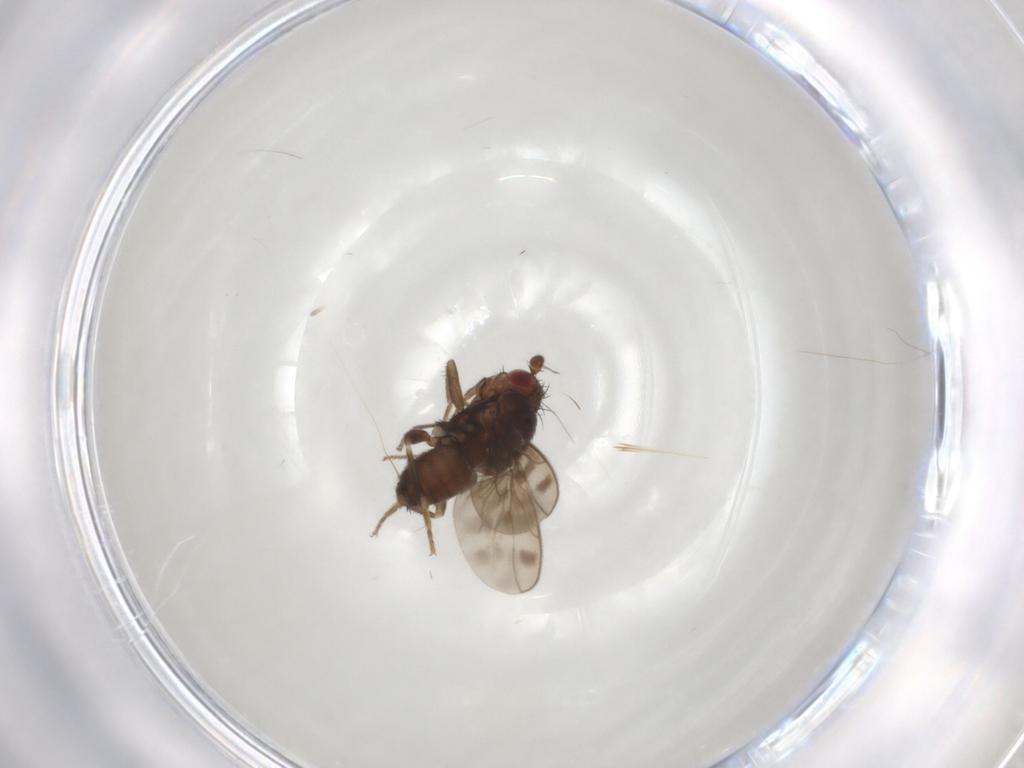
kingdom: Animalia
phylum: Arthropoda
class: Insecta
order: Diptera
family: Sphaeroceridae
